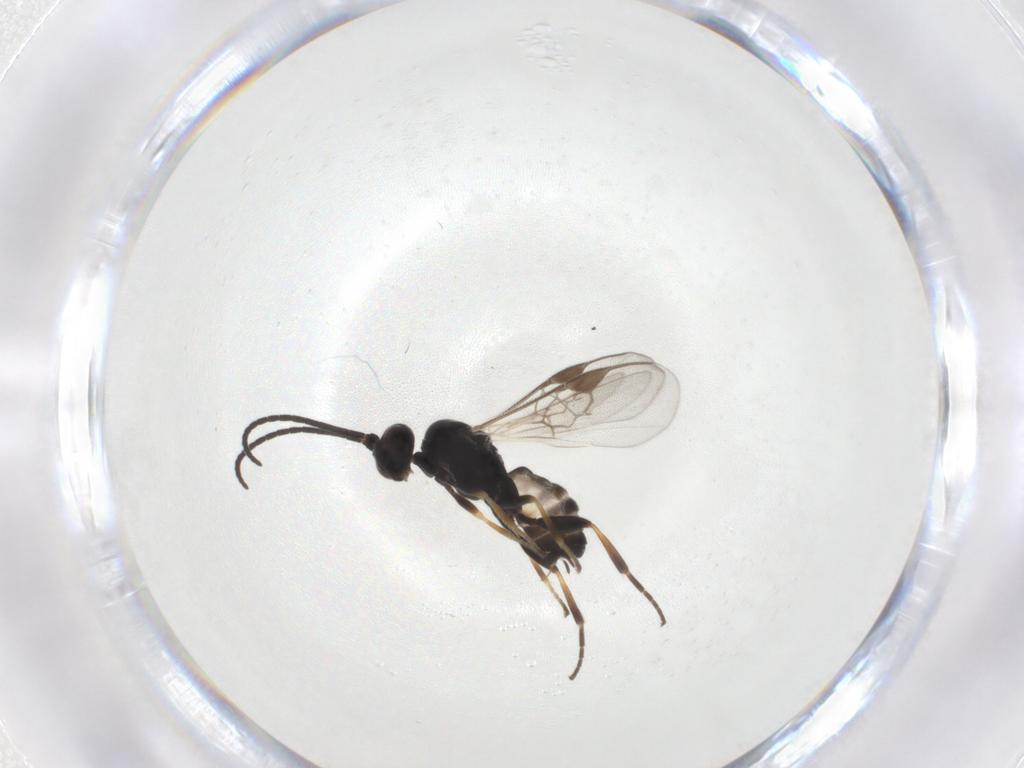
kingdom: Animalia
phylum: Arthropoda
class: Insecta
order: Hymenoptera
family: Braconidae
